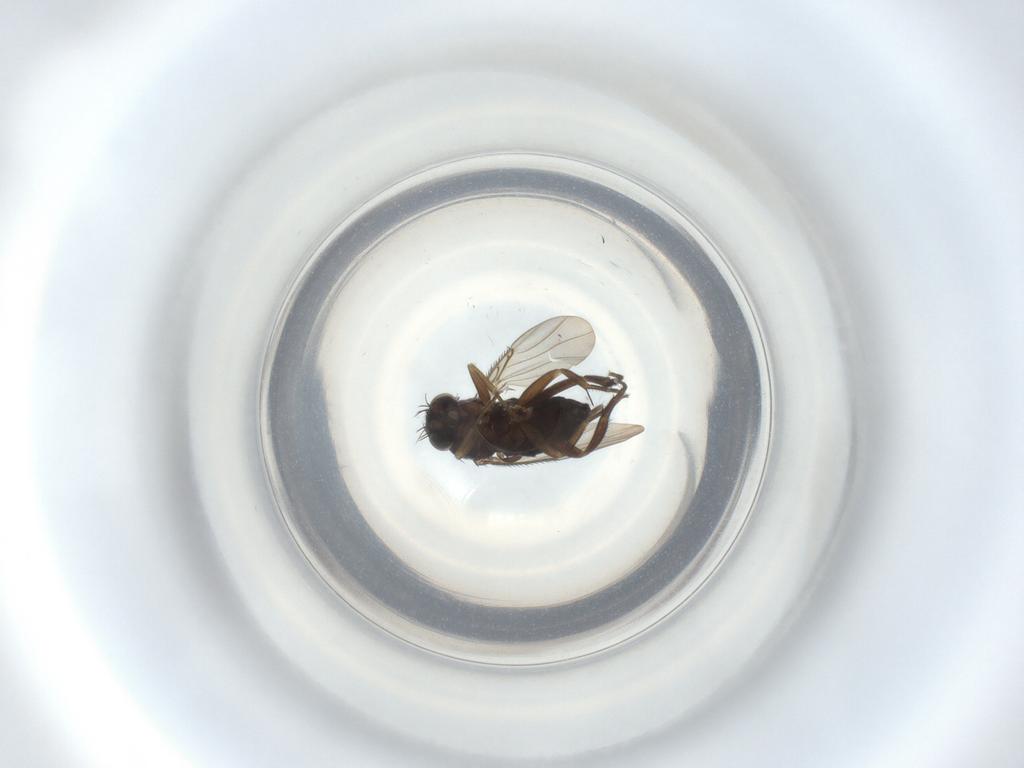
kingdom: Animalia
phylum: Arthropoda
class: Insecta
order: Diptera
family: Phoridae
